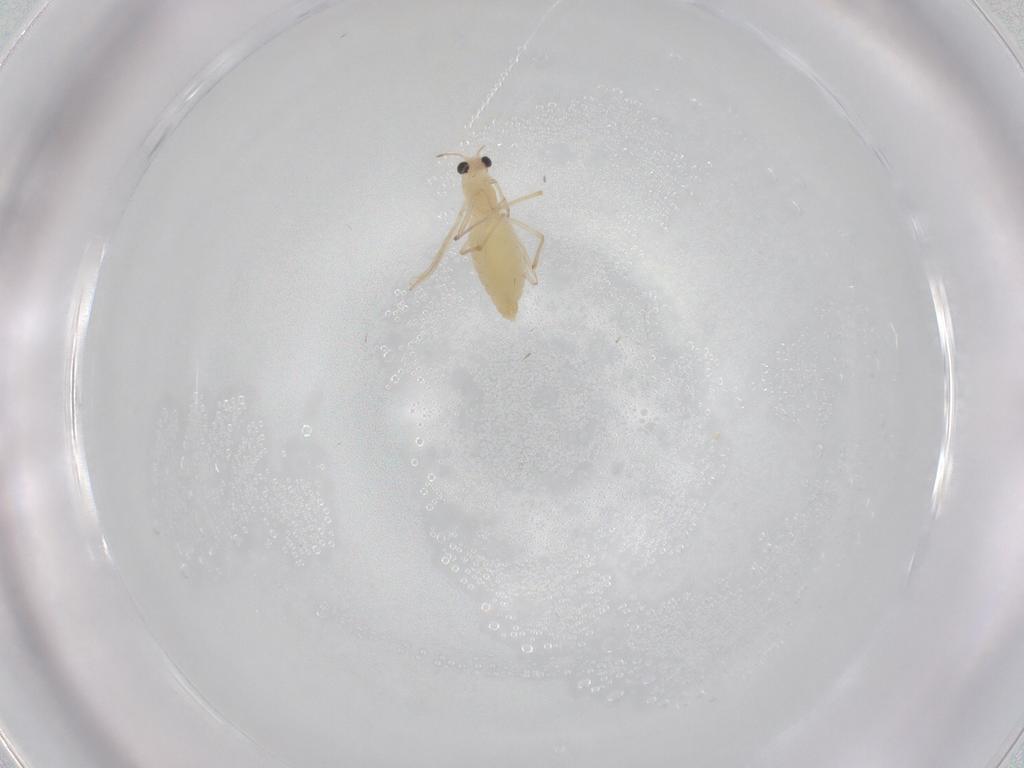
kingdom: Animalia
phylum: Arthropoda
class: Insecta
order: Diptera
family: Chironomidae
